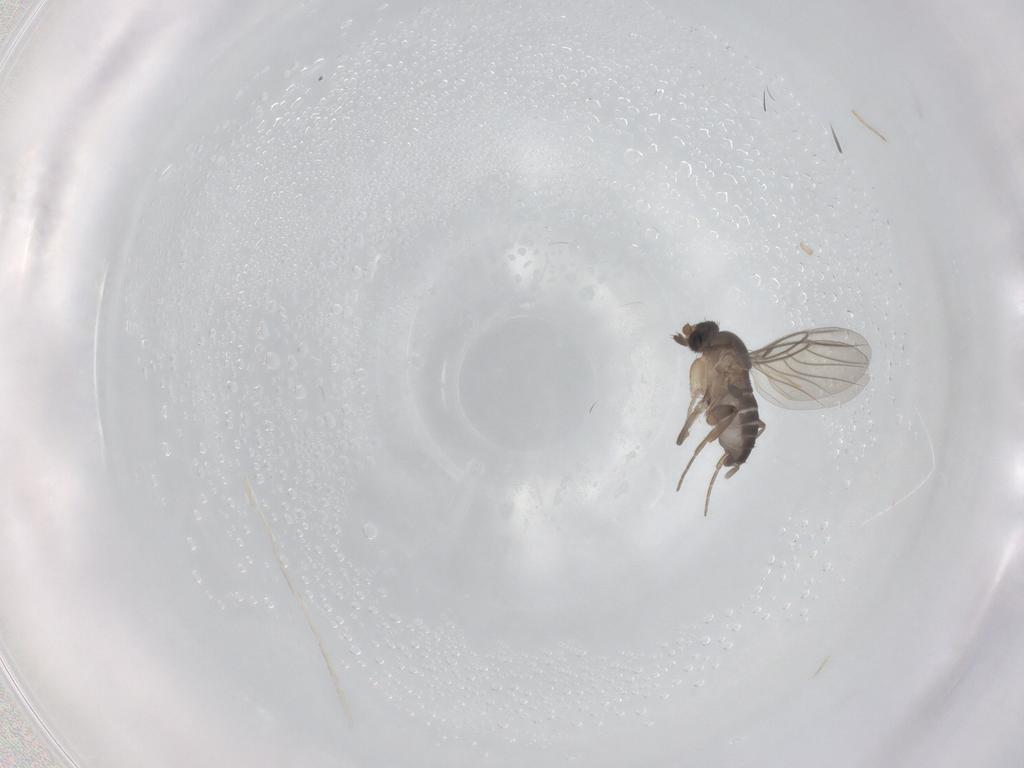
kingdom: Animalia
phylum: Arthropoda
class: Insecta
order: Diptera
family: Phoridae
